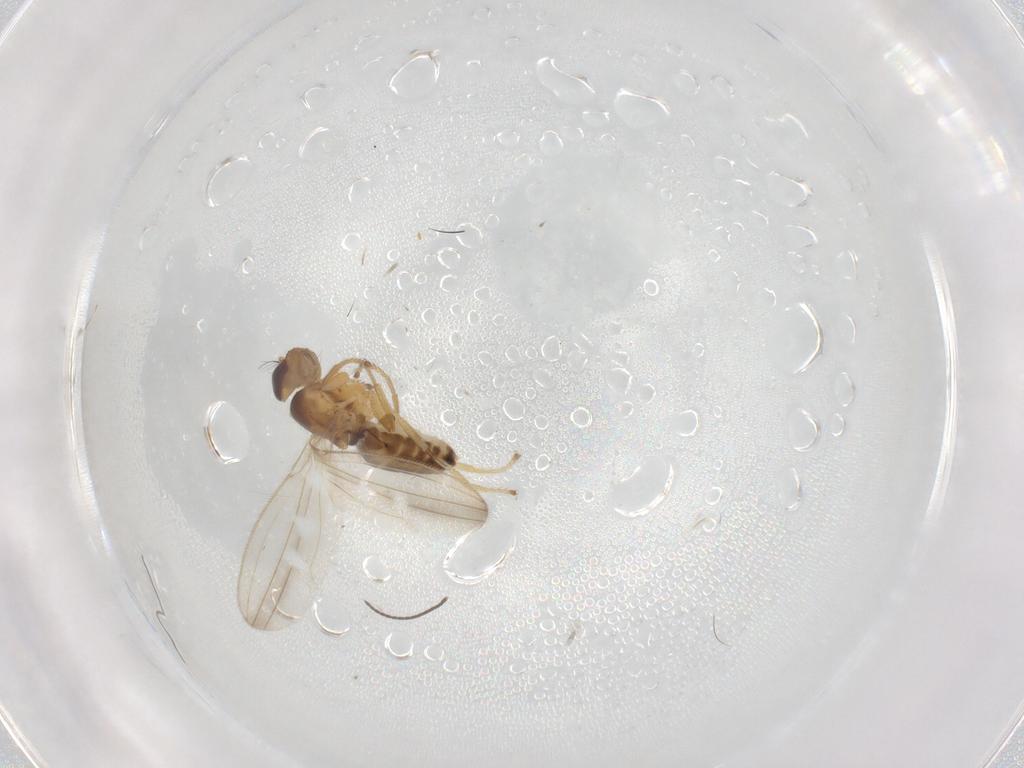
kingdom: Animalia
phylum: Arthropoda
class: Insecta
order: Diptera
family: Periscelididae
